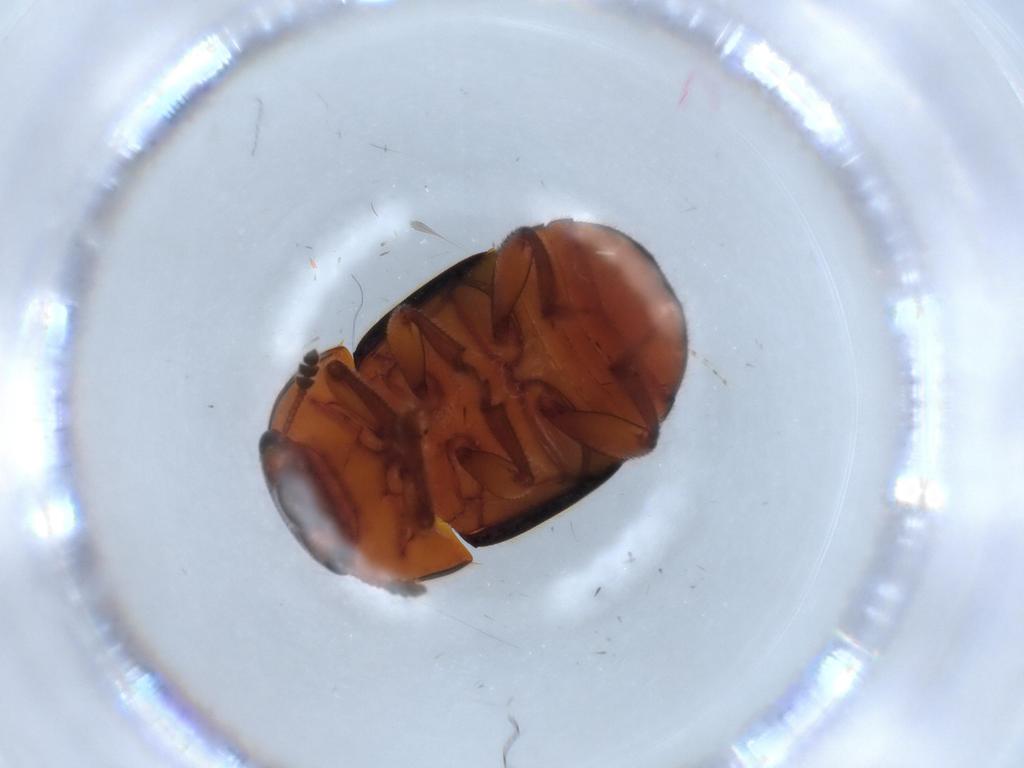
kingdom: Animalia
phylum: Arthropoda
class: Insecta
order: Coleoptera
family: Nitidulidae
